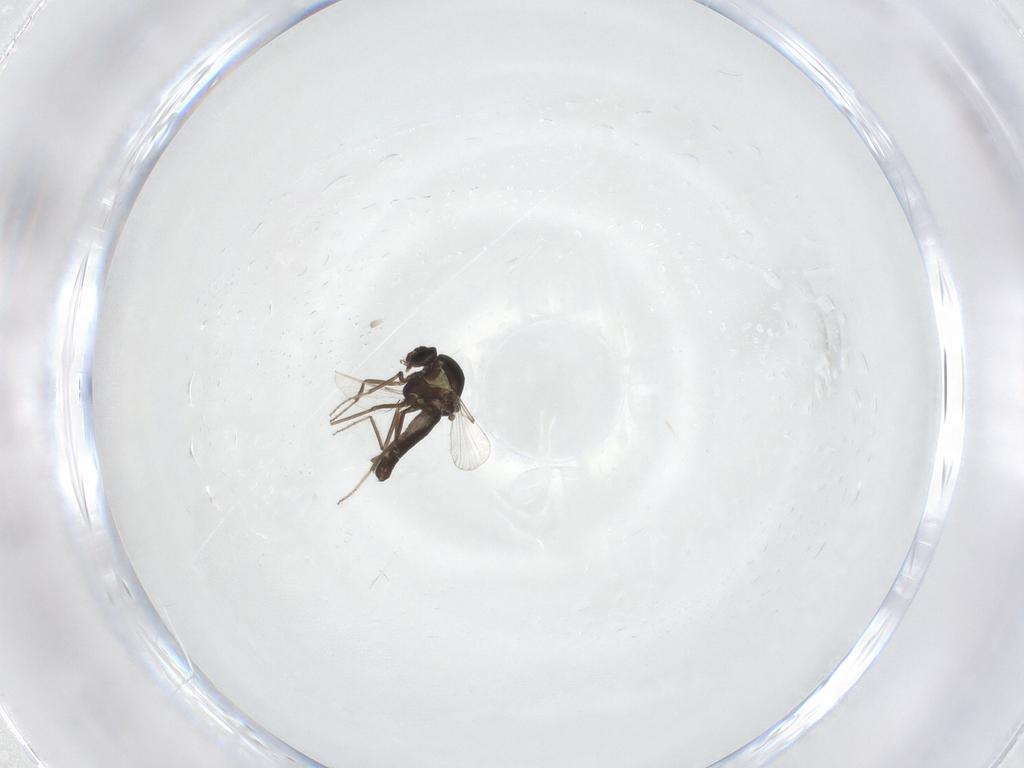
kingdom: Animalia
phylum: Arthropoda
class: Insecta
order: Diptera
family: Ceratopogonidae
